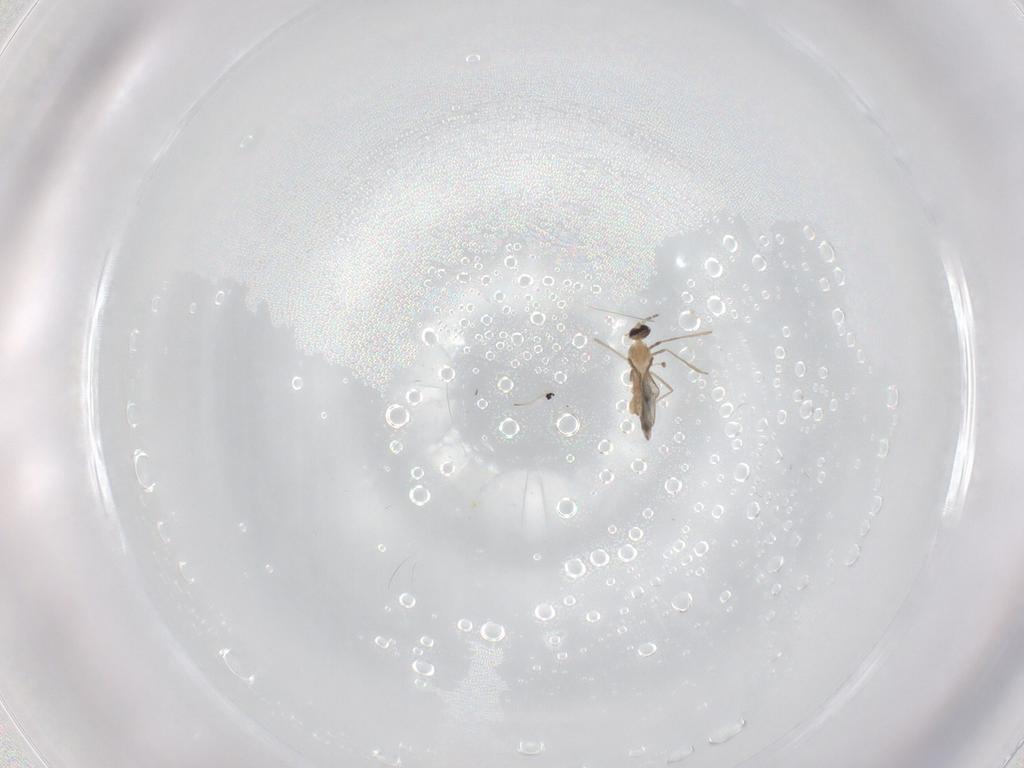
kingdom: Animalia
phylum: Arthropoda
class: Insecta
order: Diptera
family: Cecidomyiidae
